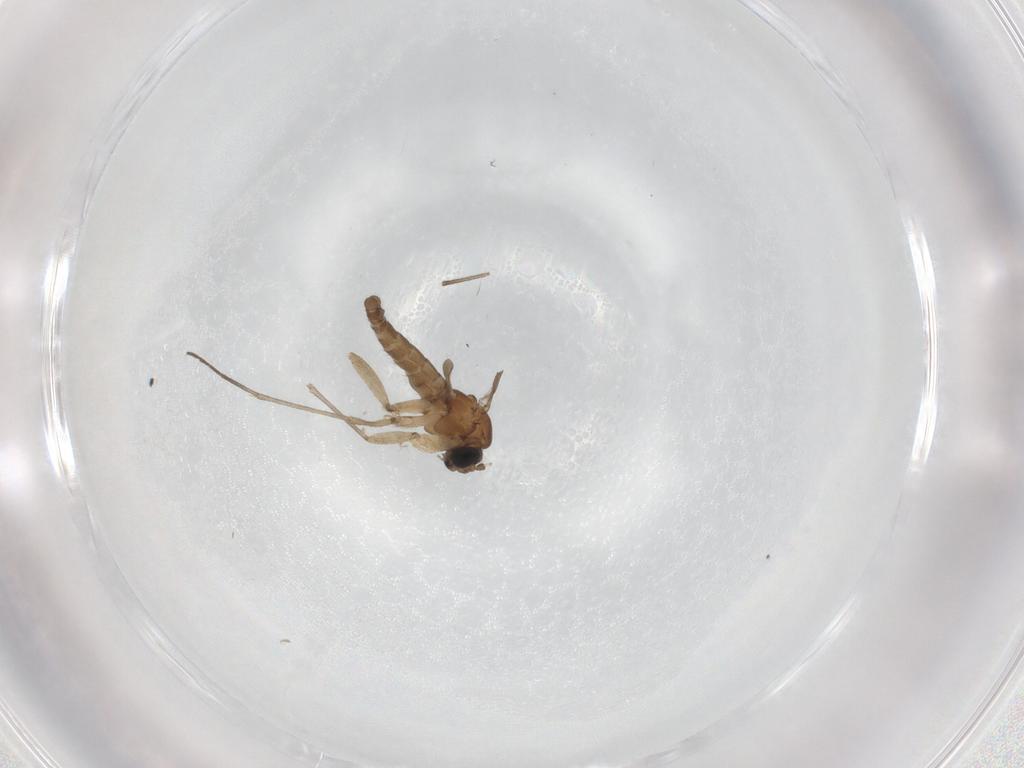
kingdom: Animalia
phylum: Arthropoda
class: Insecta
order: Diptera
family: Sciaridae
